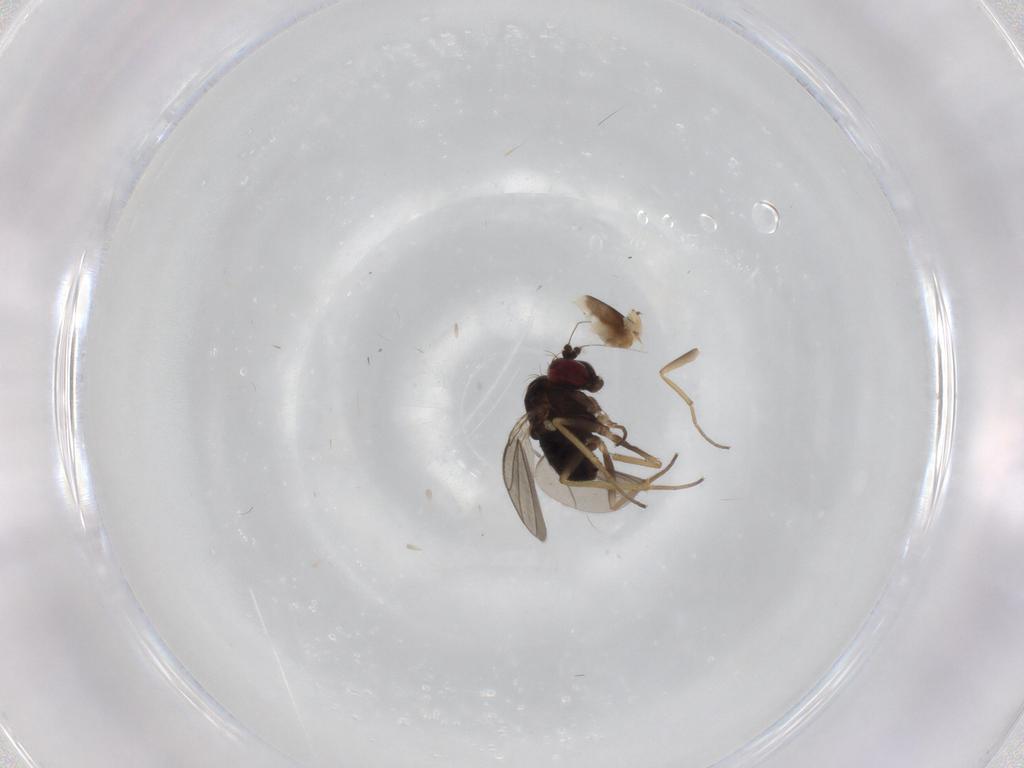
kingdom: Animalia
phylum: Arthropoda
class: Insecta
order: Diptera
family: Dolichopodidae
